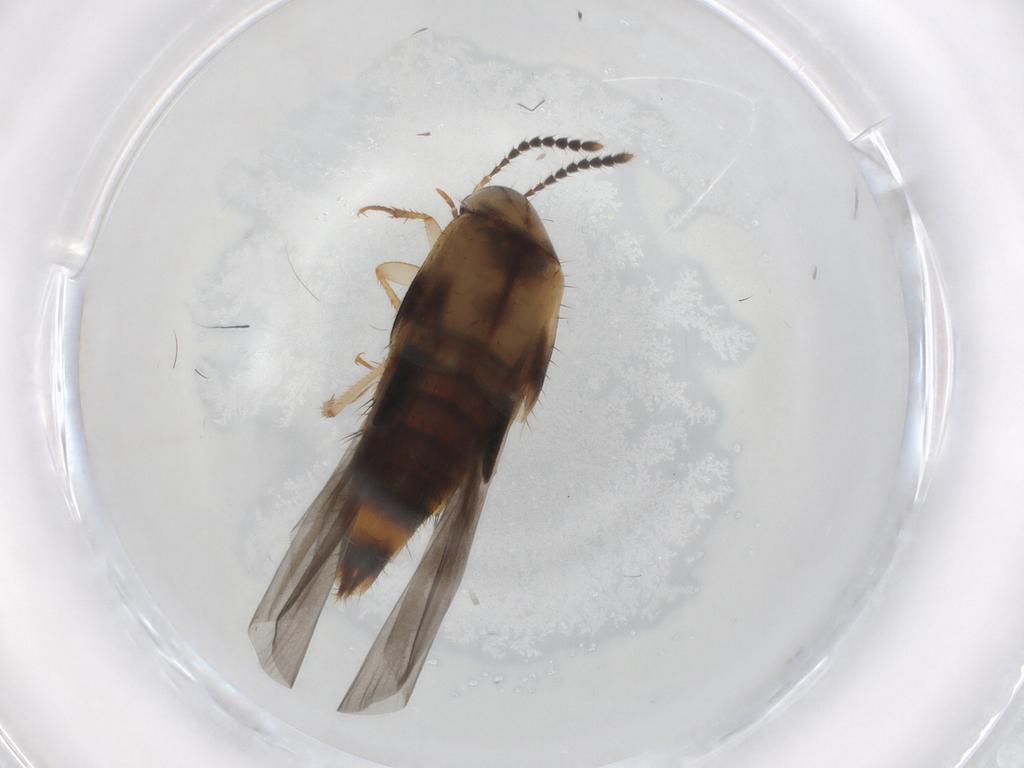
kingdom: Animalia
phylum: Arthropoda
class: Insecta
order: Coleoptera
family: Staphylinidae
